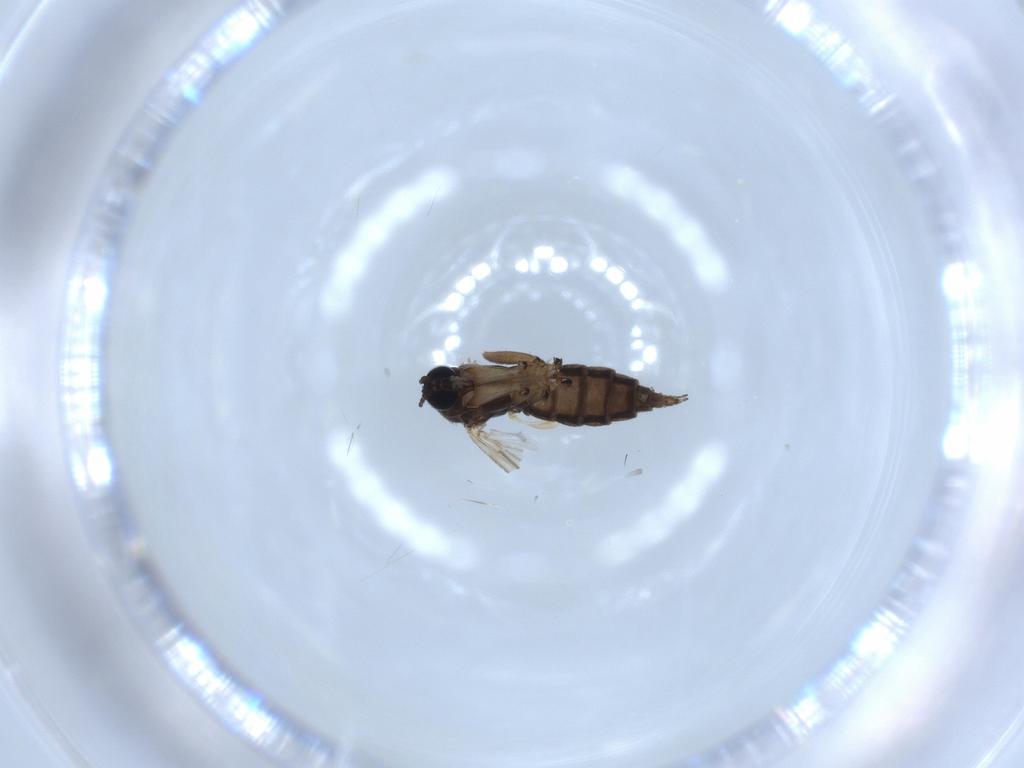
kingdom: Animalia
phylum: Arthropoda
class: Insecta
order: Diptera
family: Sciaridae
